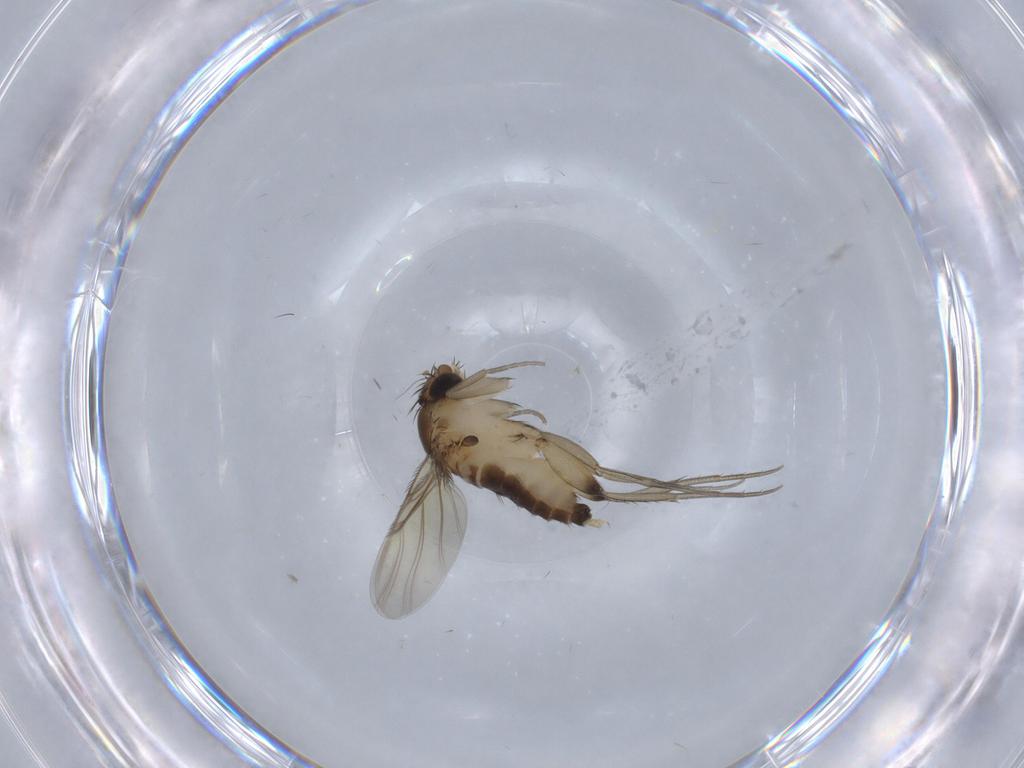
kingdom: Animalia
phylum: Arthropoda
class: Insecta
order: Diptera
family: Phoridae
